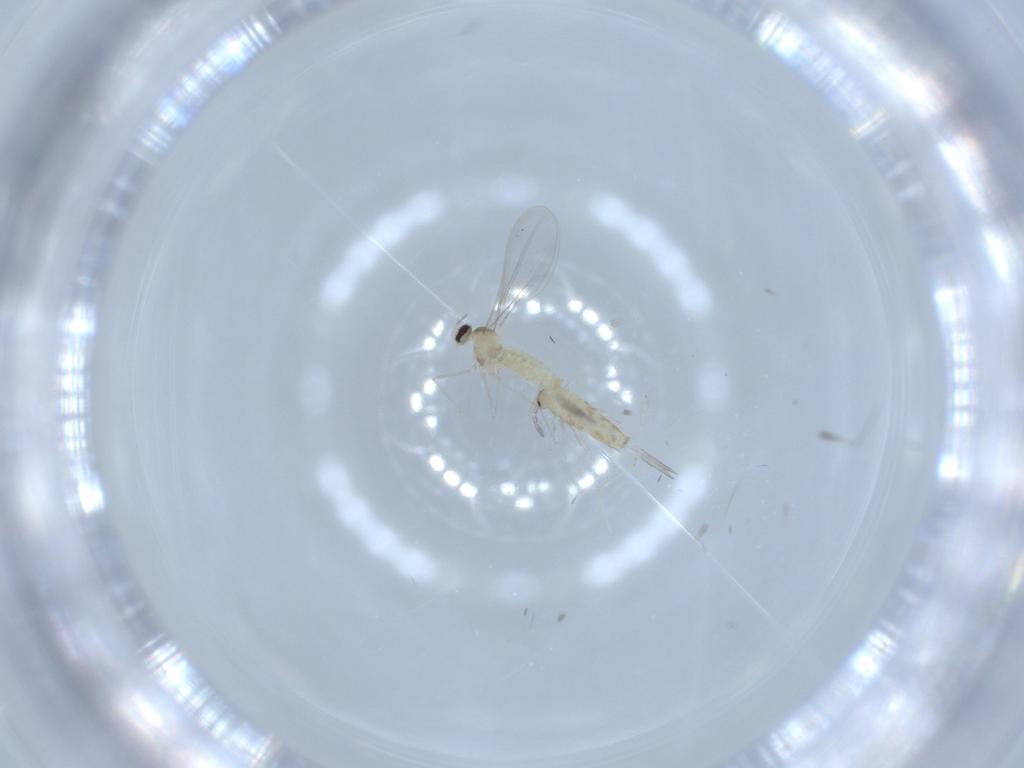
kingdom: Animalia
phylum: Arthropoda
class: Collembola
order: Entomobryomorpha
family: Entomobryidae
